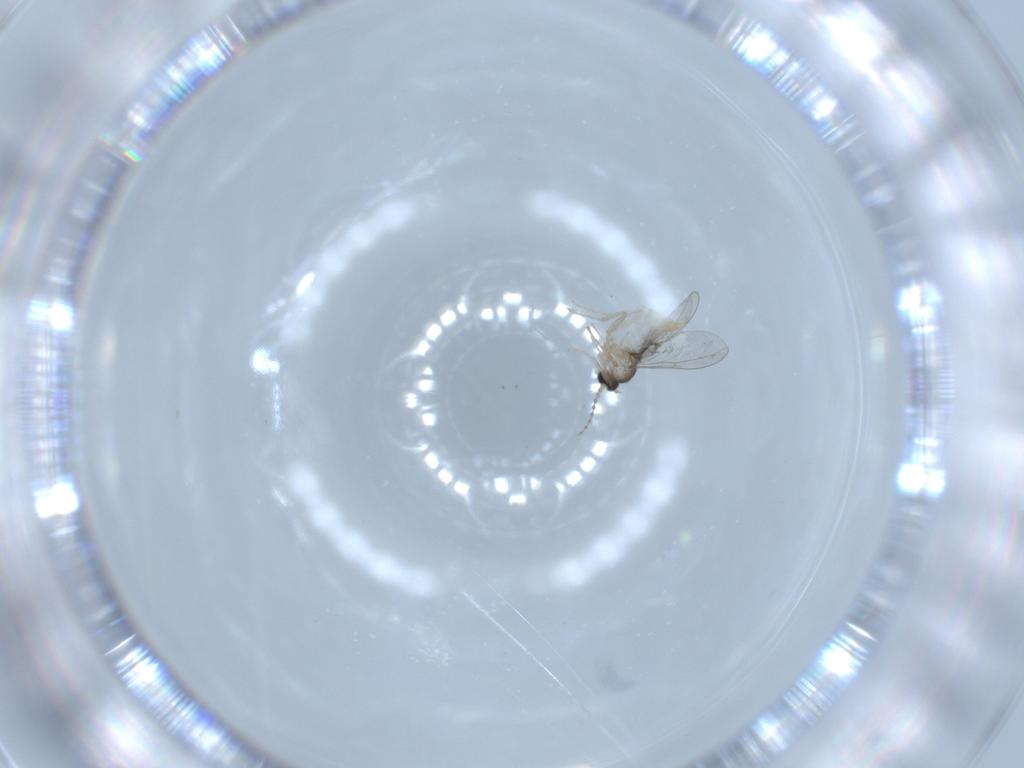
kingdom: Animalia
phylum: Arthropoda
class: Insecta
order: Diptera
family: Cecidomyiidae
